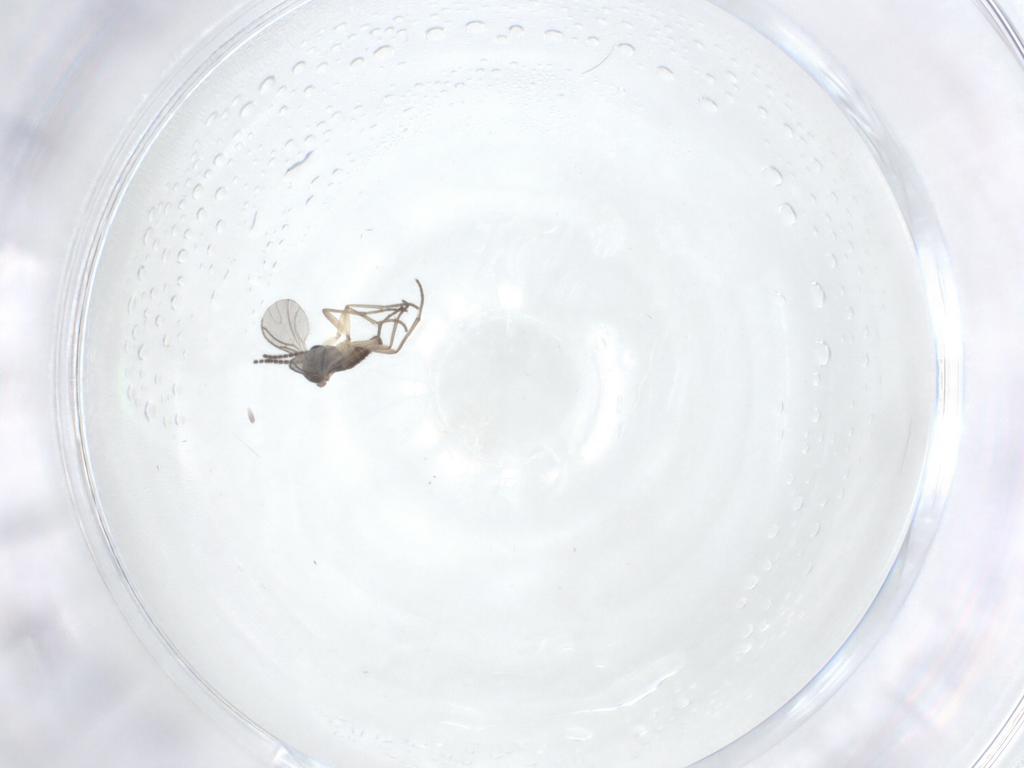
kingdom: Animalia
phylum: Arthropoda
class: Insecta
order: Diptera
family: Sciaridae
